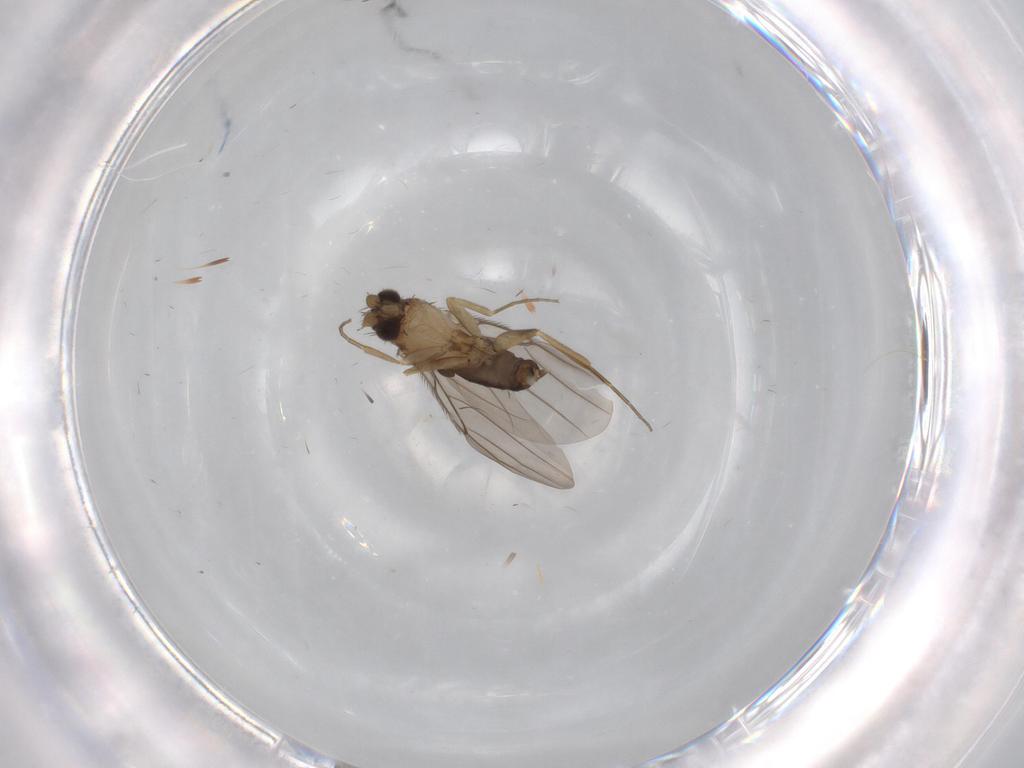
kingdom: Animalia
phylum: Arthropoda
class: Insecta
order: Diptera
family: Phoridae
